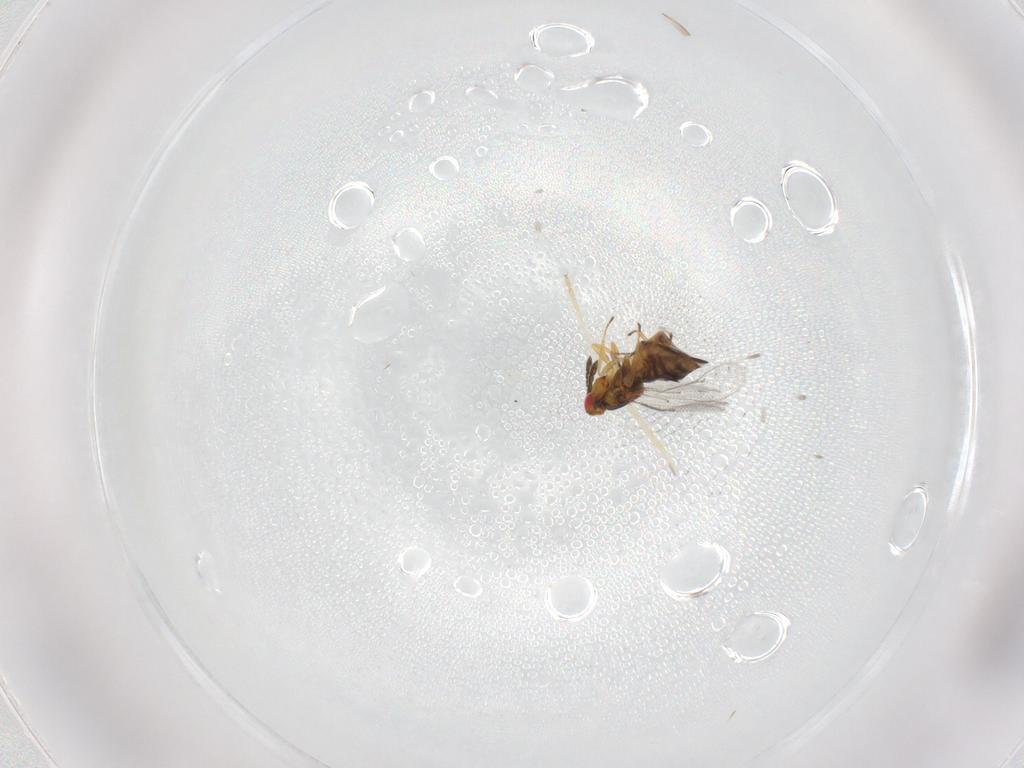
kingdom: Animalia
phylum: Arthropoda
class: Insecta
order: Hymenoptera
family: Eulophidae
